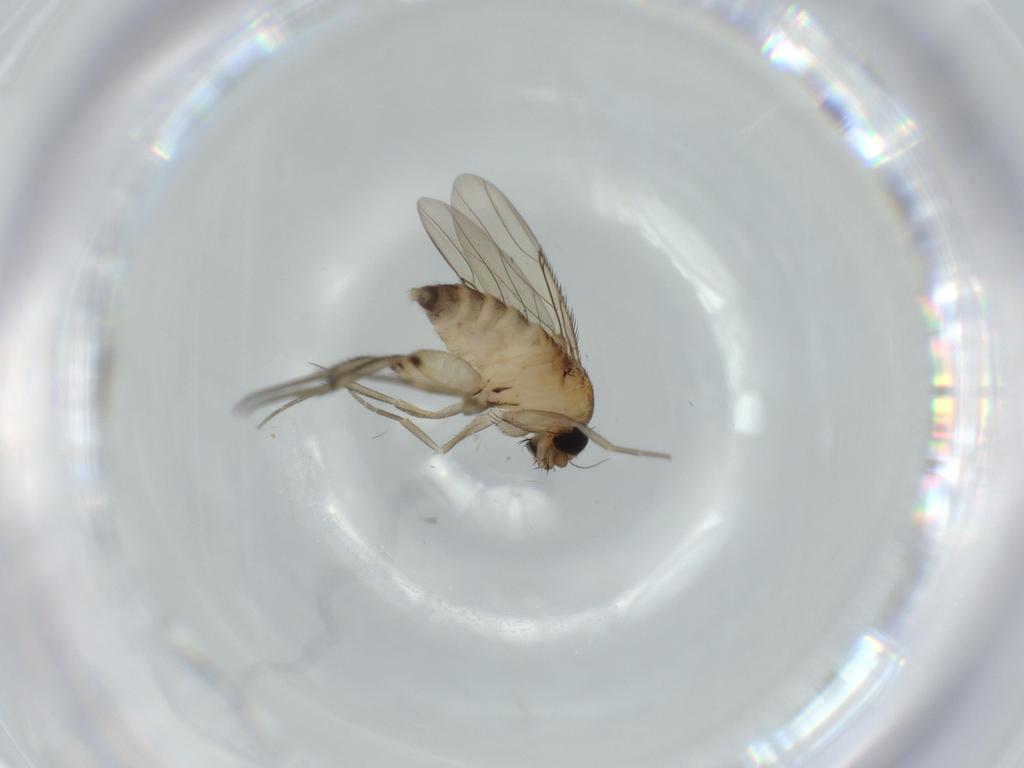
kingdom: Animalia
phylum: Arthropoda
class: Insecta
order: Diptera
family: Phoridae
